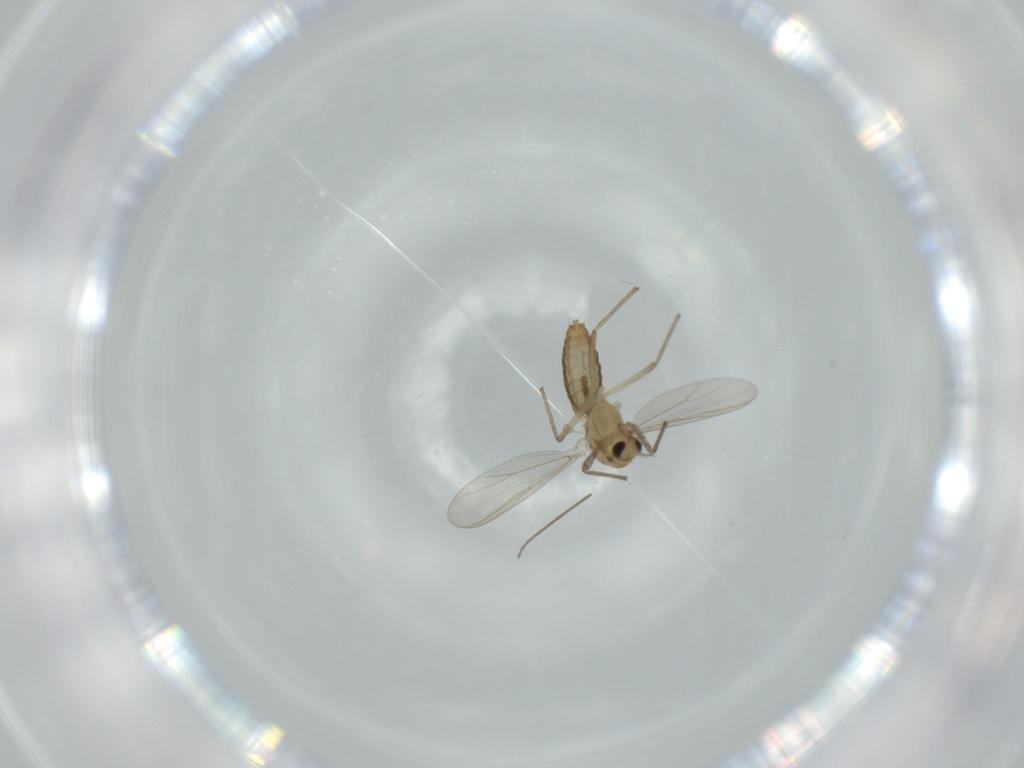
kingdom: Animalia
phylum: Arthropoda
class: Insecta
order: Diptera
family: Chironomidae
